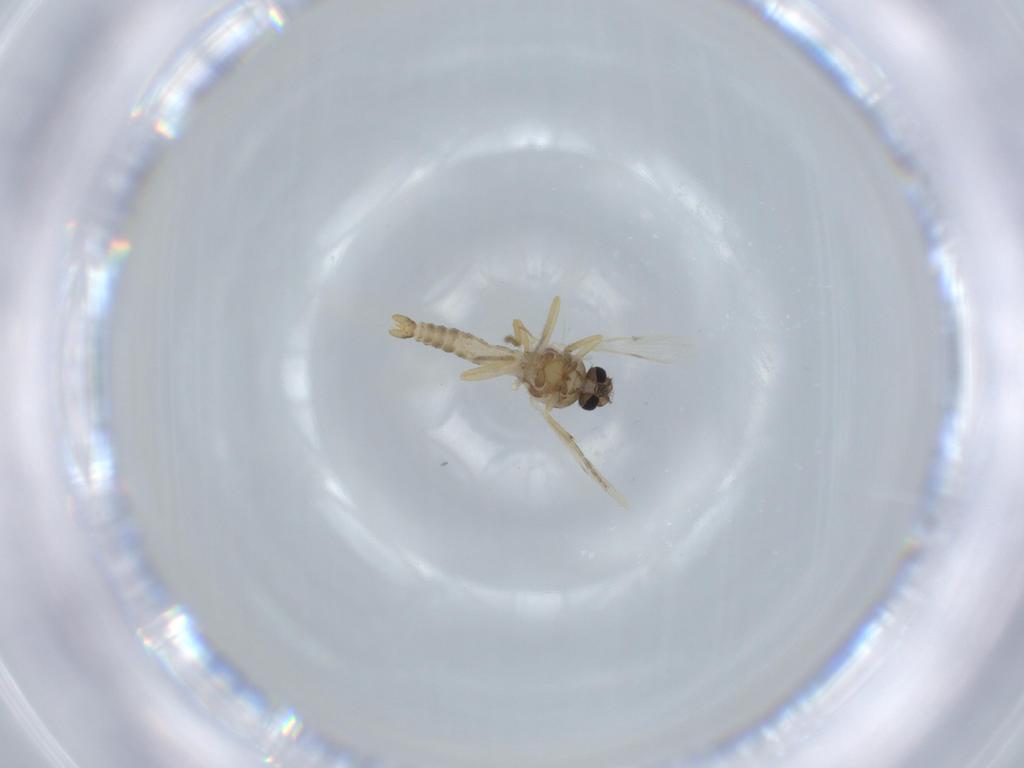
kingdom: Animalia
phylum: Arthropoda
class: Insecta
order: Diptera
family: Ceratopogonidae
